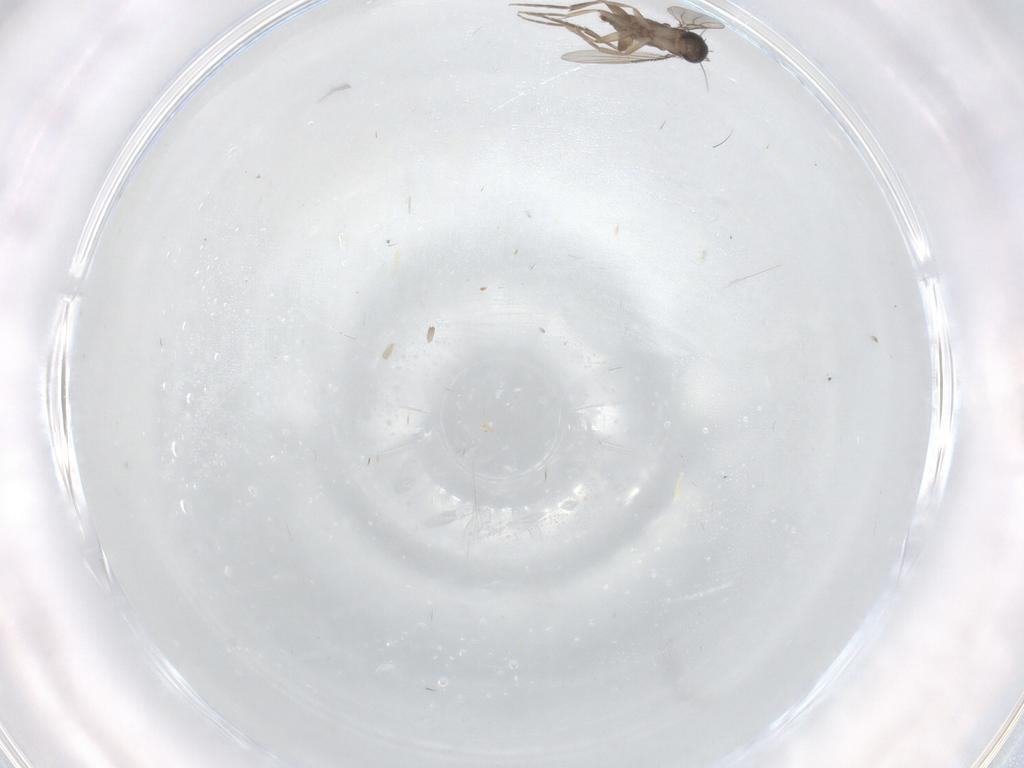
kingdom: Animalia
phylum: Arthropoda
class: Insecta
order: Diptera
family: Phoridae
